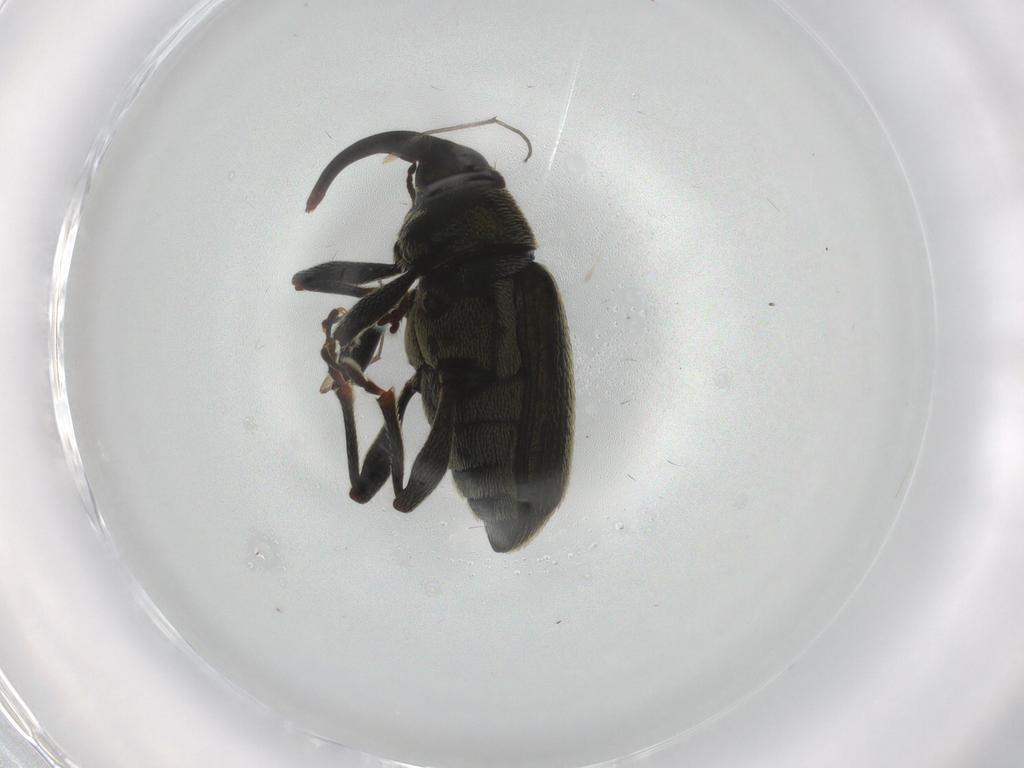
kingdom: Animalia
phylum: Arthropoda
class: Insecta
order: Coleoptera
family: Curculionidae
